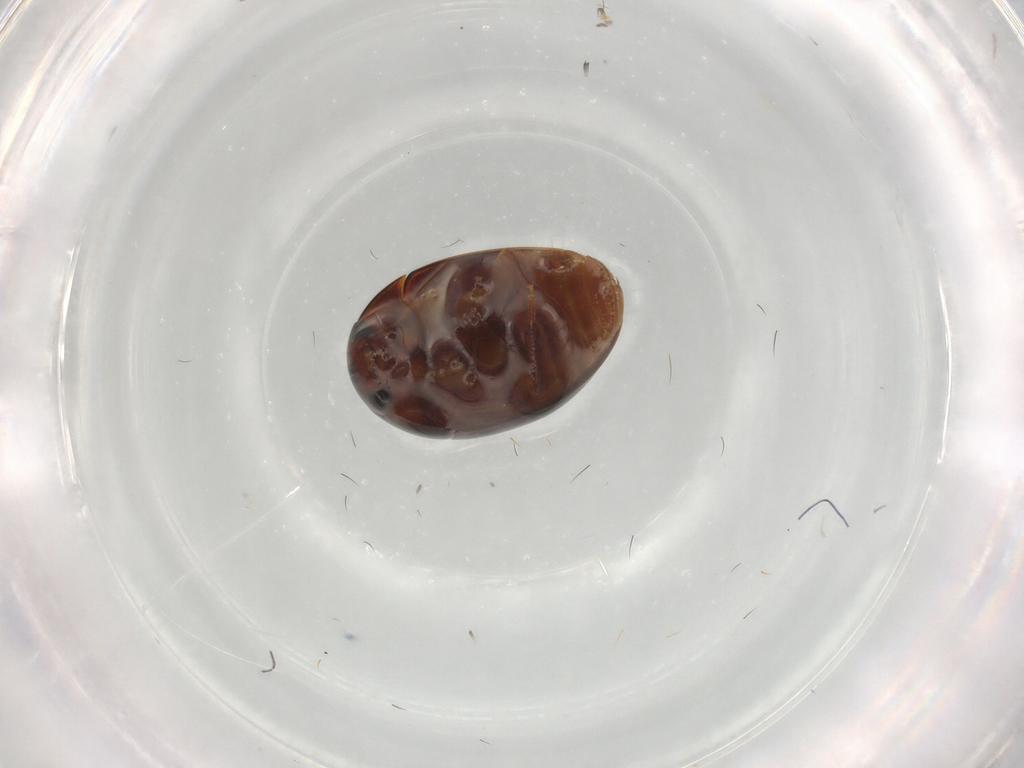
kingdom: Animalia
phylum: Arthropoda
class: Insecta
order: Coleoptera
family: Phalacridae
